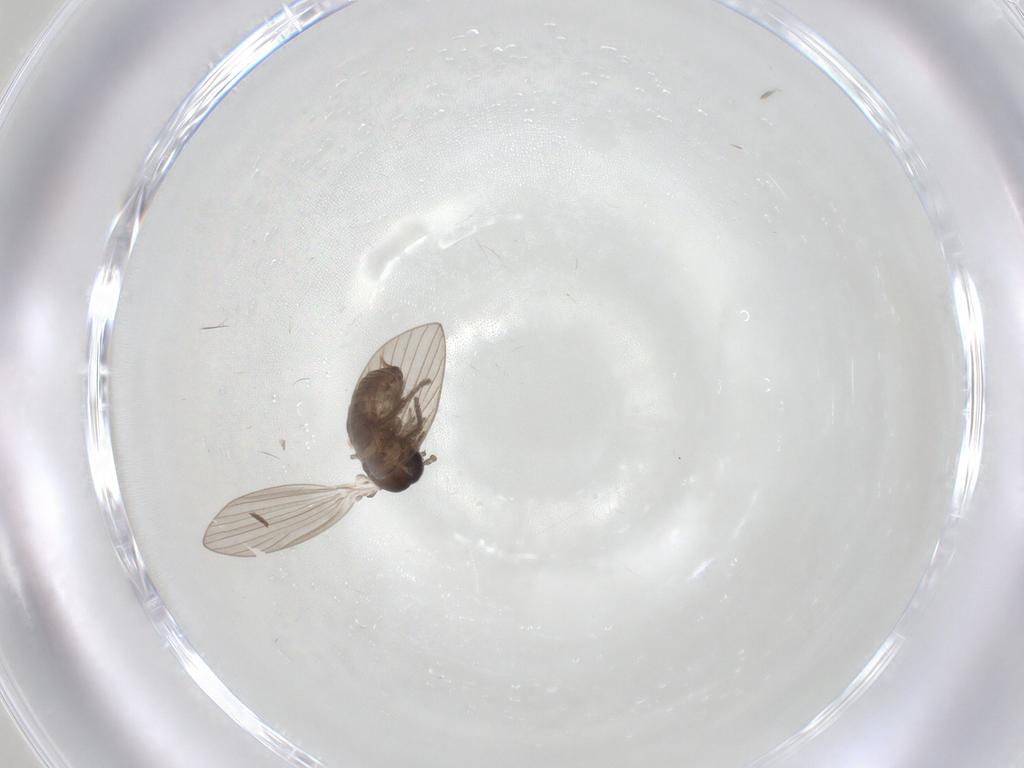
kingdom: Animalia
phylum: Arthropoda
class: Insecta
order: Diptera
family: Psychodidae
